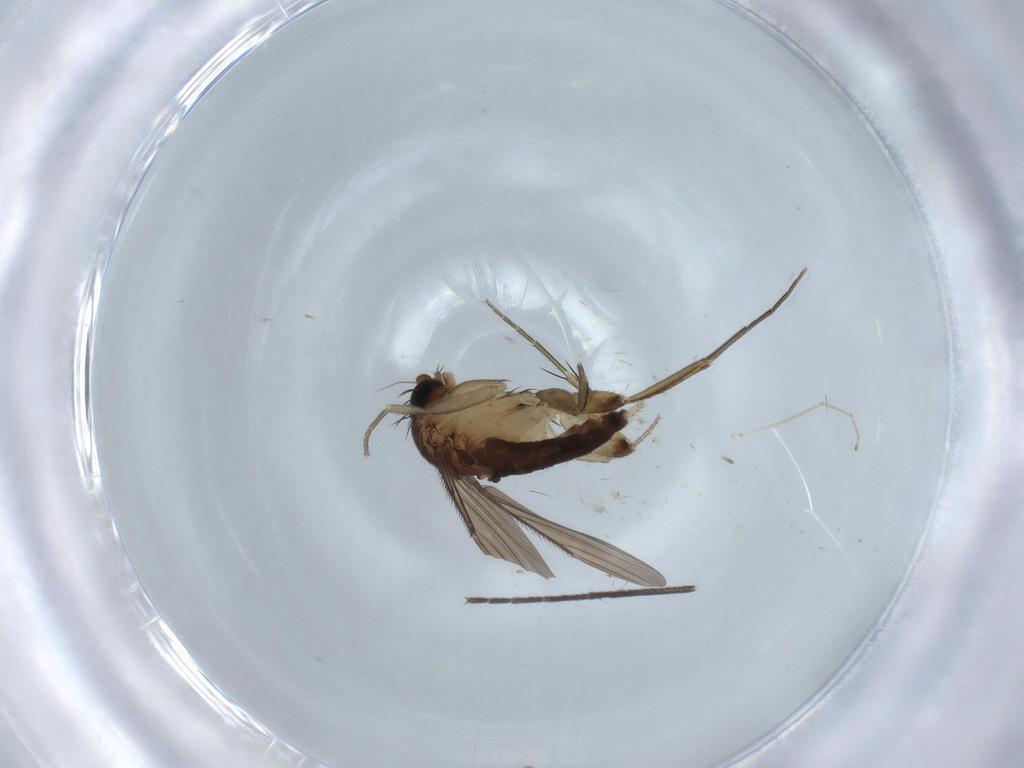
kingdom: Animalia
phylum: Arthropoda
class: Insecta
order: Diptera
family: Phoridae
